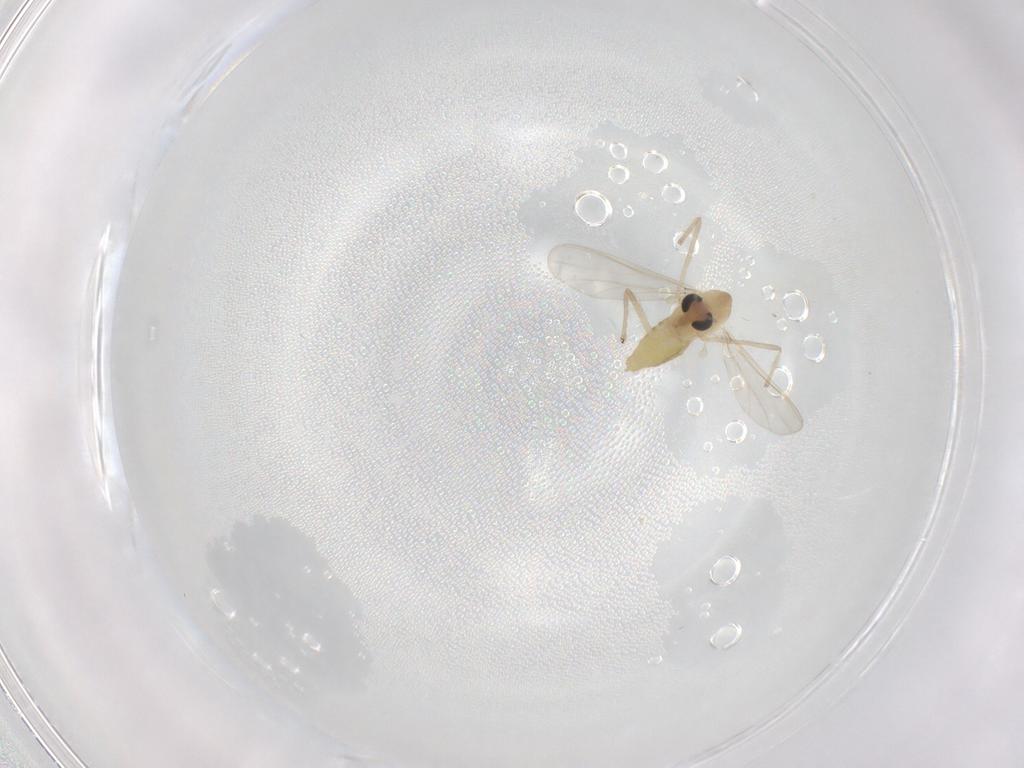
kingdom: Animalia
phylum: Arthropoda
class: Insecta
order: Diptera
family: Chironomidae
